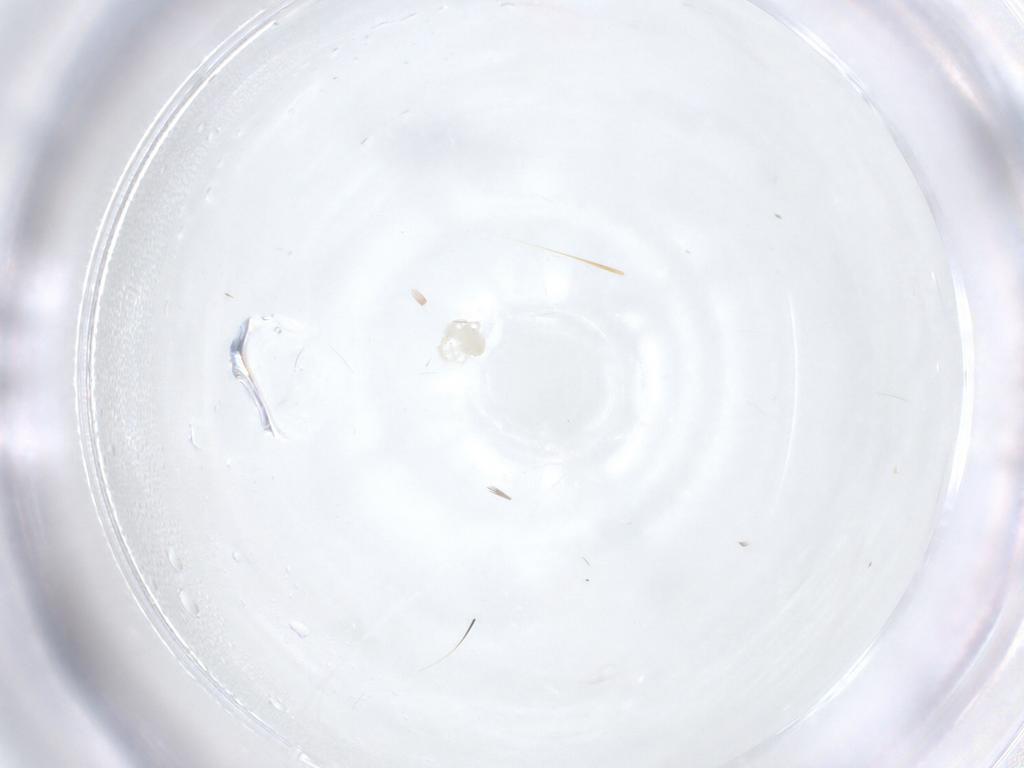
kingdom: Animalia
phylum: Arthropoda
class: Arachnida
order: Trombidiformes
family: Anystidae
